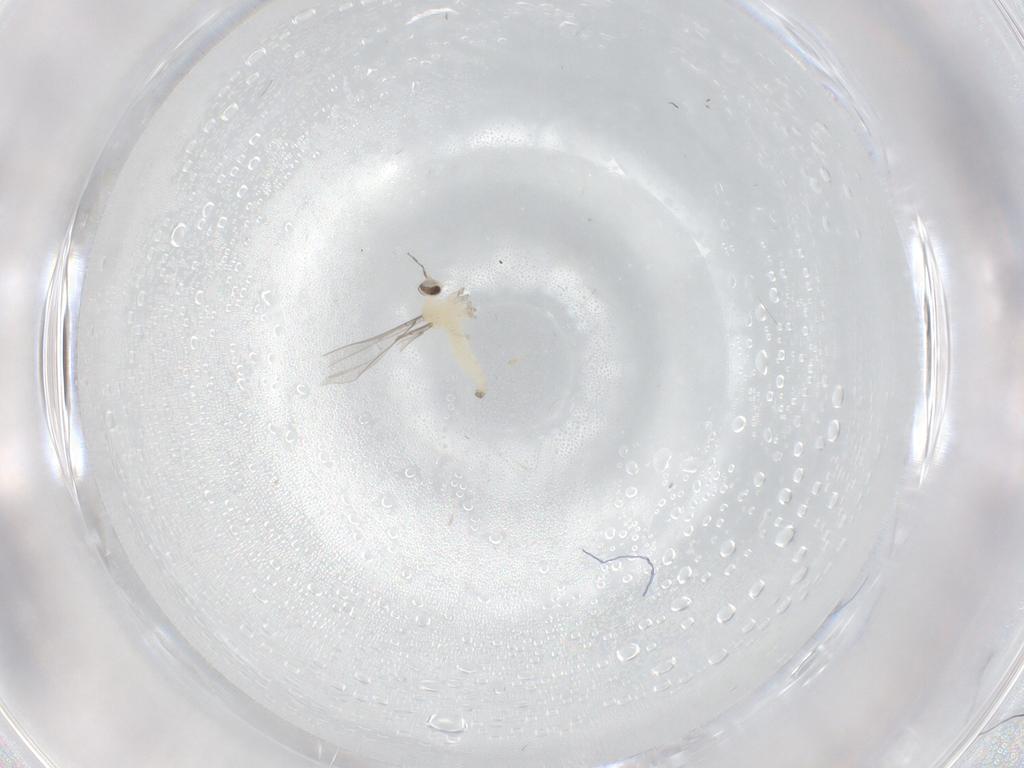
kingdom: Animalia
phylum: Arthropoda
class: Insecta
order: Diptera
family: Cecidomyiidae
